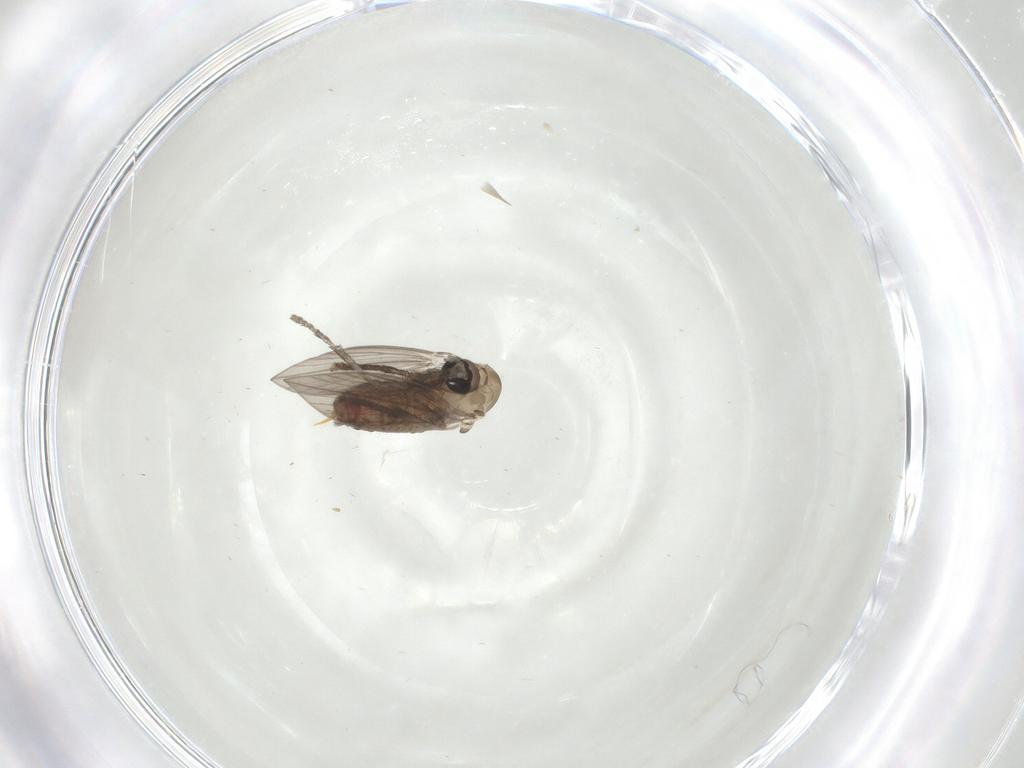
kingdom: Animalia
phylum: Arthropoda
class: Insecta
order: Diptera
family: Psychodidae
